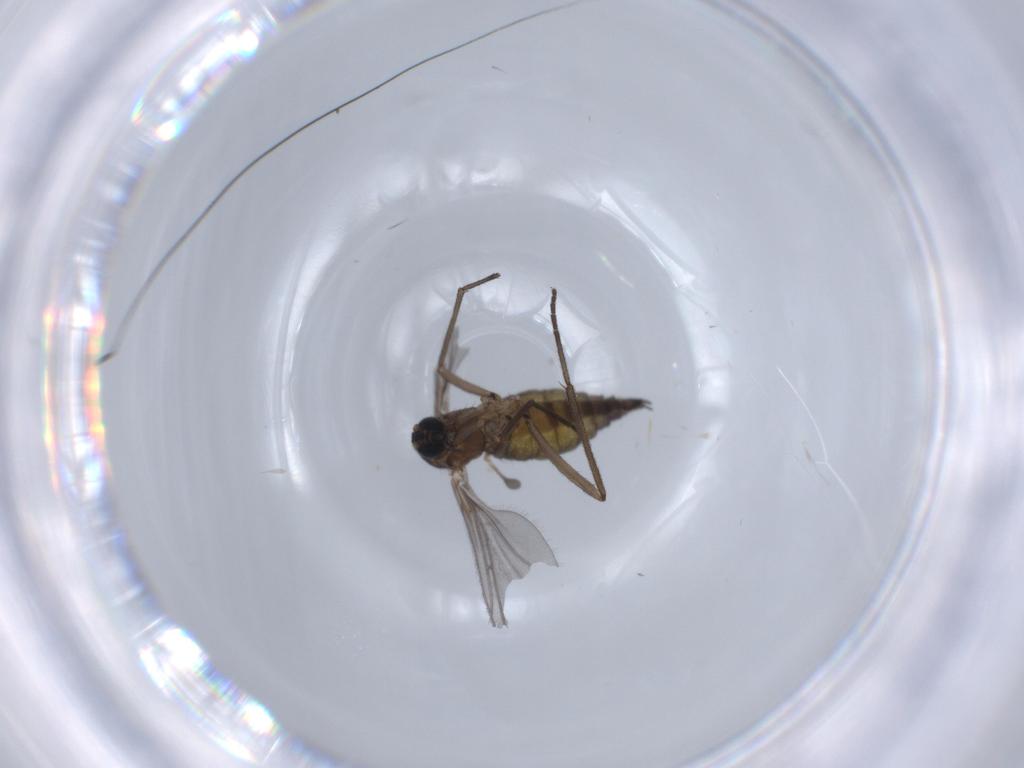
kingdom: Animalia
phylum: Arthropoda
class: Insecta
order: Diptera
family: Sciaridae
